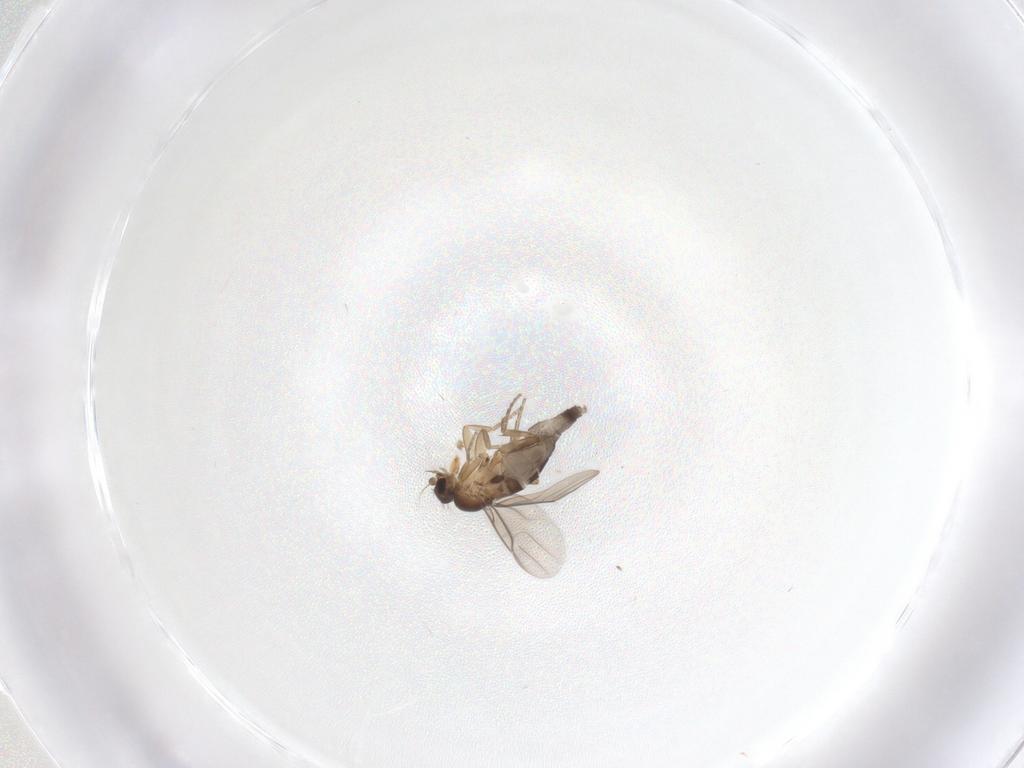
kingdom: Animalia
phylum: Arthropoda
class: Insecta
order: Diptera
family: Phoridae
